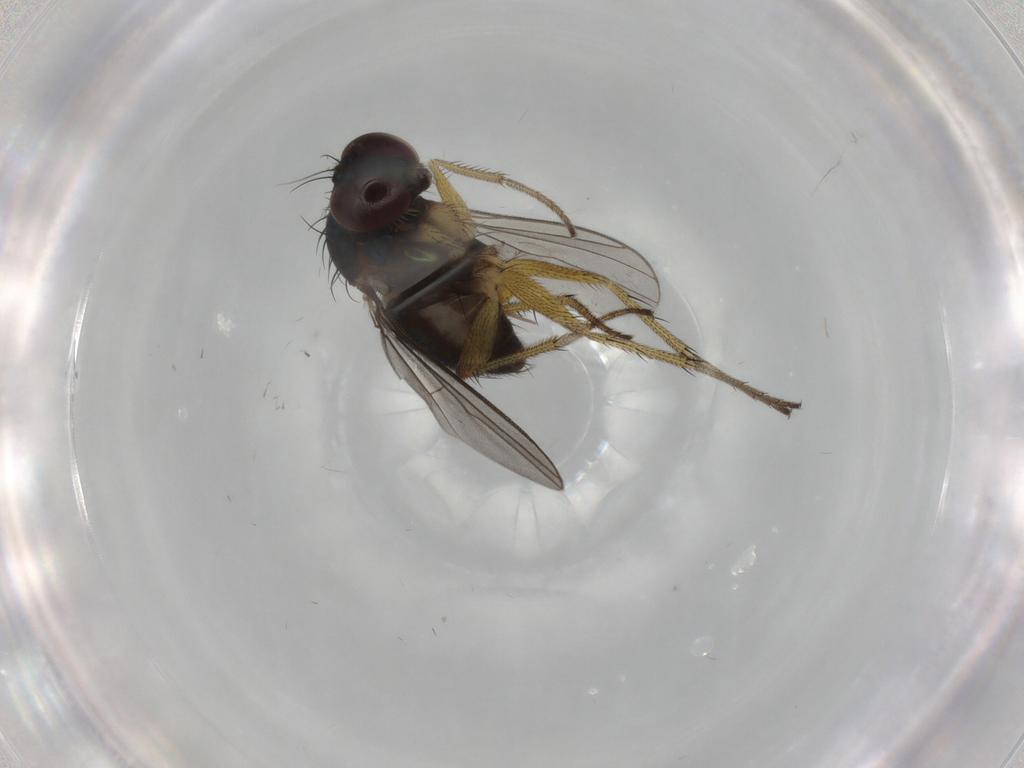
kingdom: Animalia
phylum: Arthropoda
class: Insecta
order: Diptera
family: Dolichopodidae
